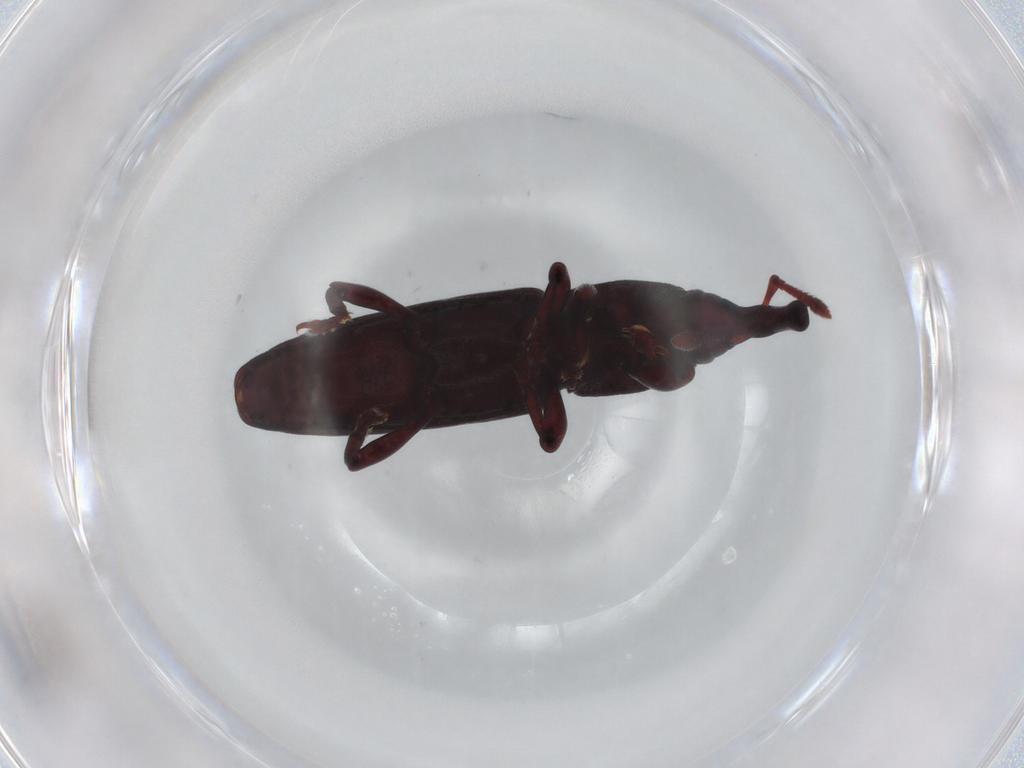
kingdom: Animalia
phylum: Arthropoda
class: Insecta
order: Coleoptera
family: Curculionidae
